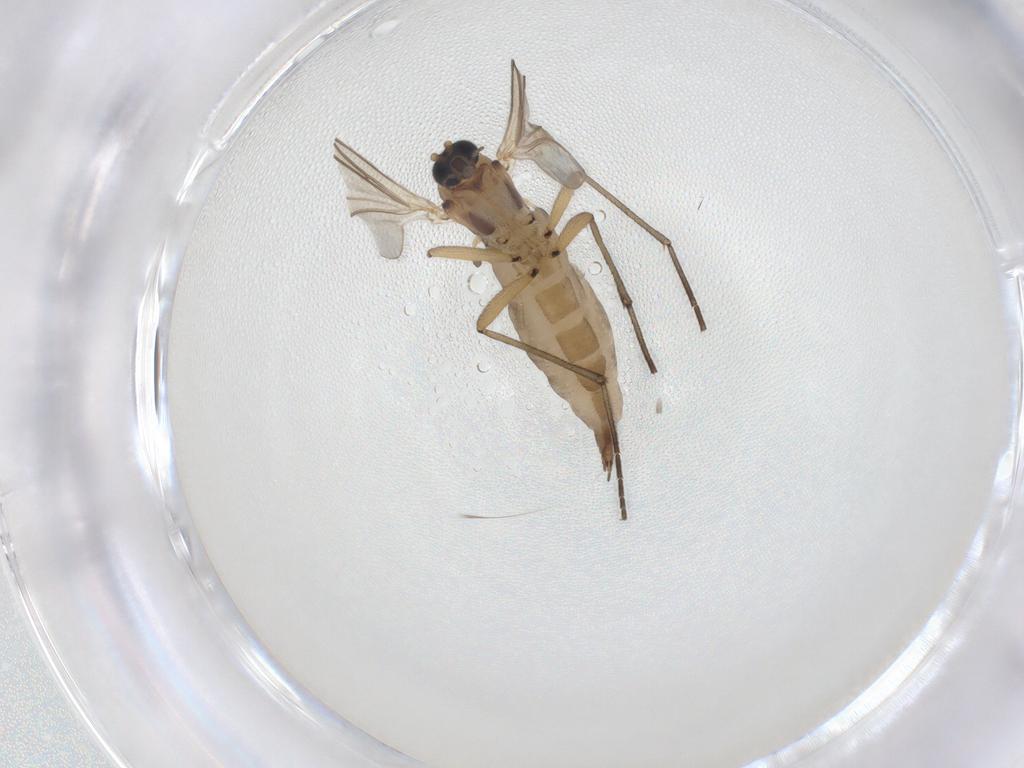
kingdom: Animalia
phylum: Arthropoda
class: Insecta
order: Diptera
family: Sciaridae
